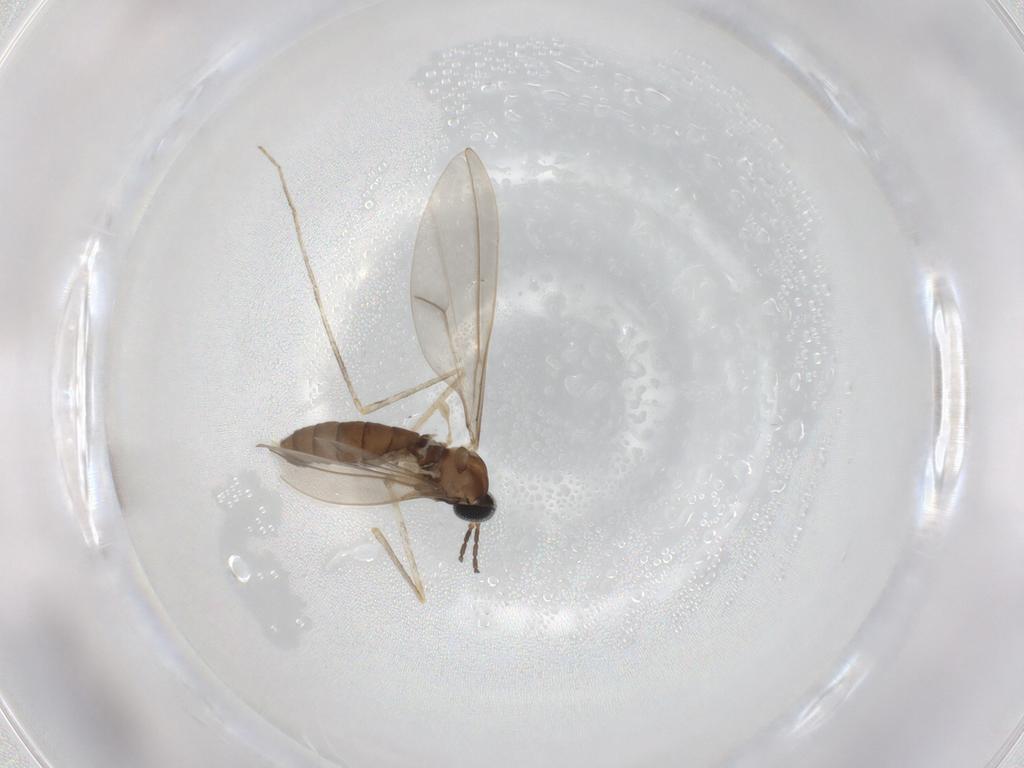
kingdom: Animalia
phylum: Arthropoda
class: Insecta
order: Diptera
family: Cecidomyiidae
